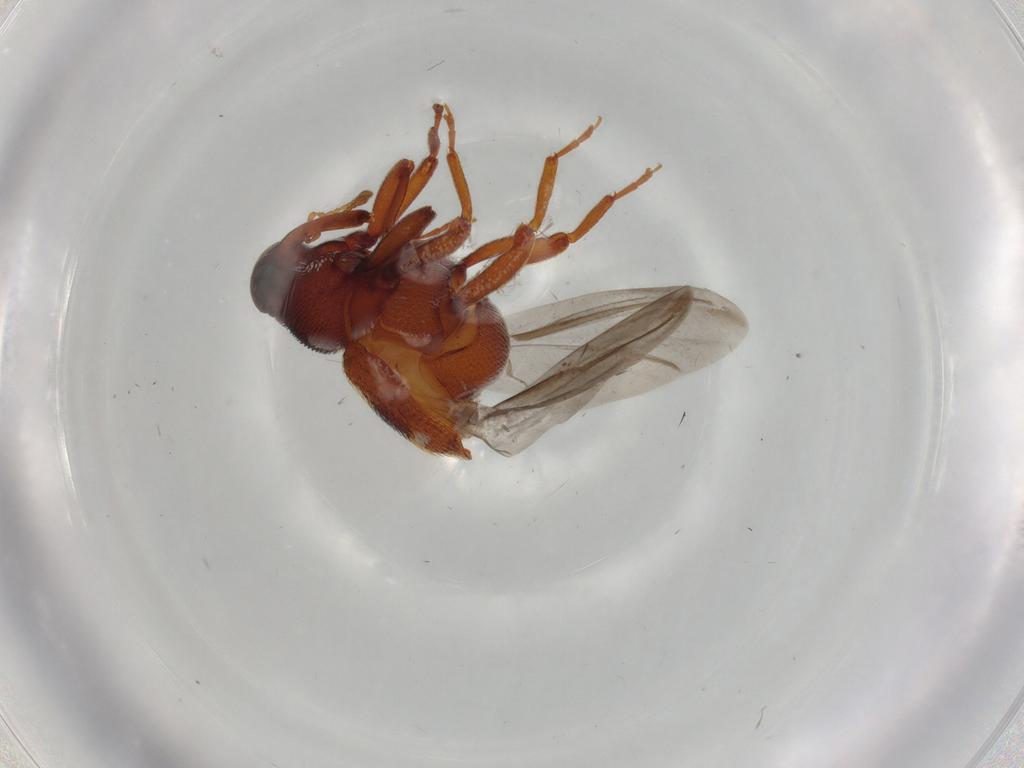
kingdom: Animalia
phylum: Arthropoda
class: Insecta
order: Coleoptera
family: Curculionidae
